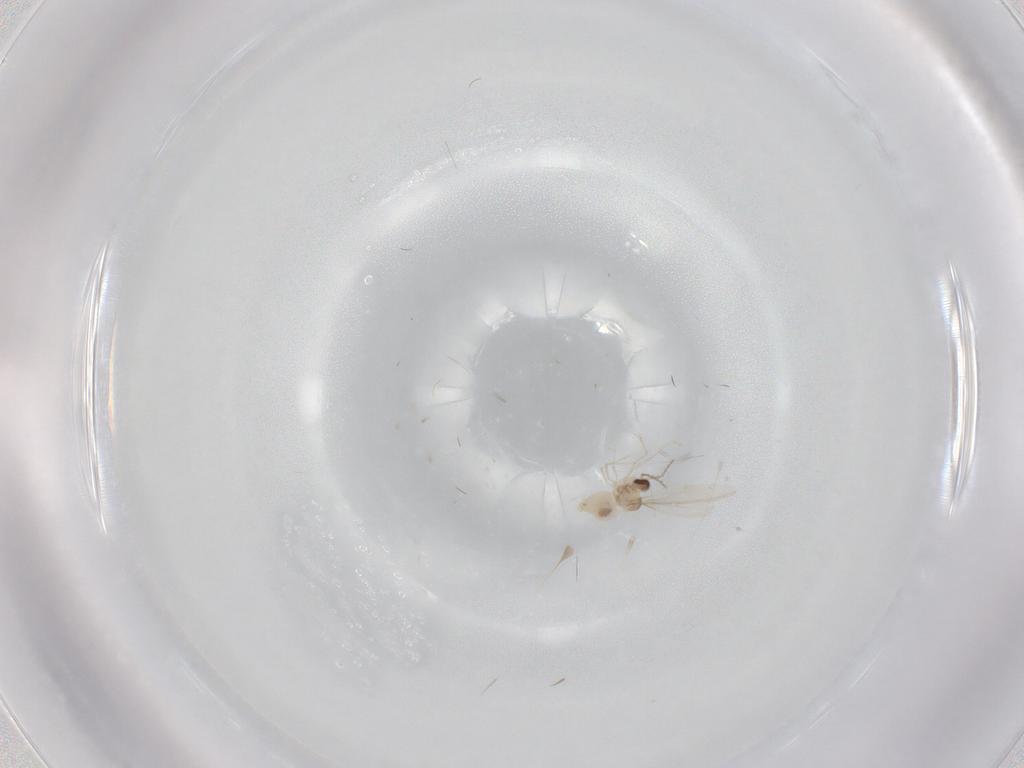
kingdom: Animalia
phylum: Arthropoda
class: Insecta
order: Diptera
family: Cecidomyiidae
